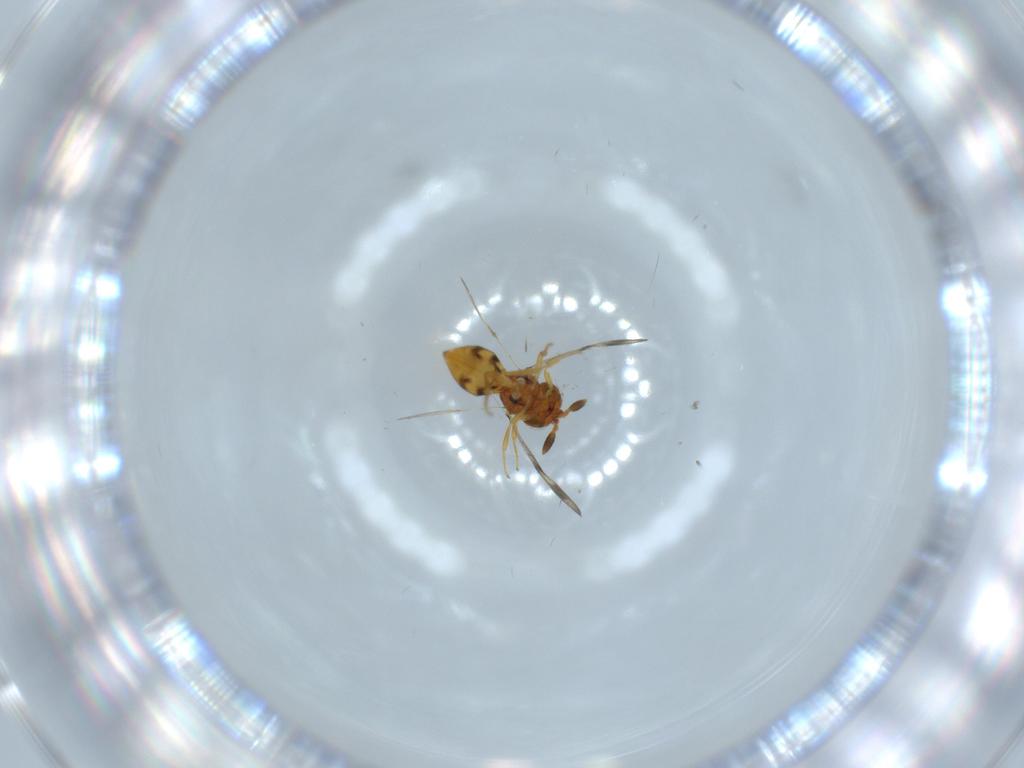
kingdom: Animalia
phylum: Arthropoda
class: Insecta
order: Hymenoptera
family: Scelionidae
